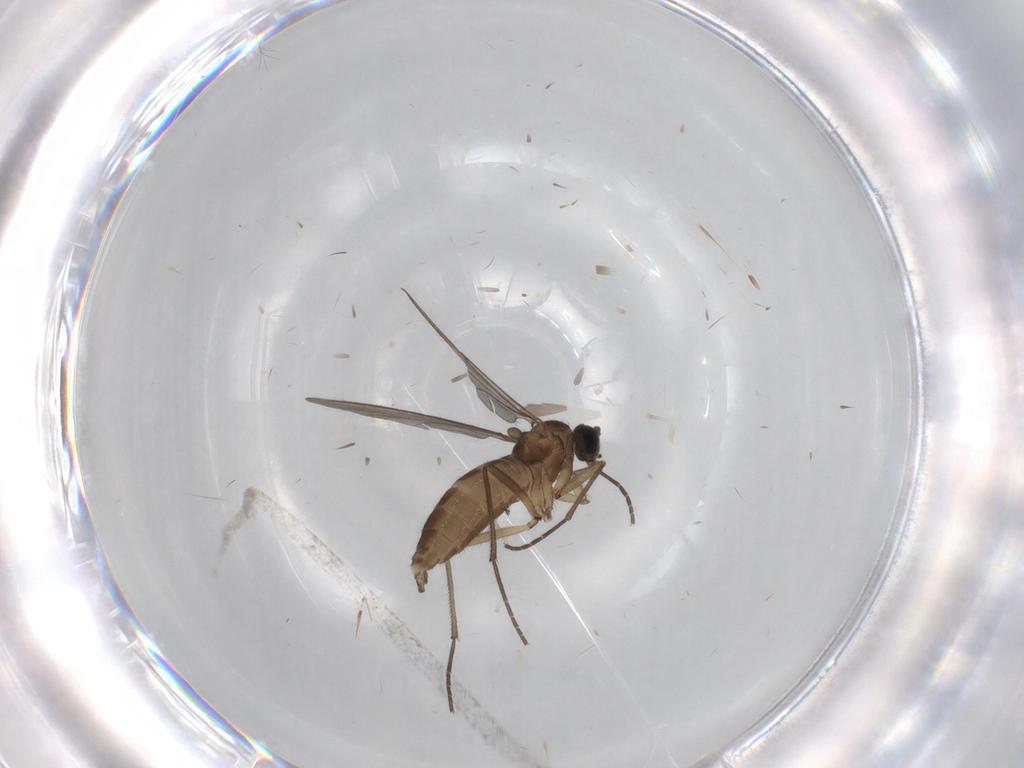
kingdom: Animalia
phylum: Arthropoda
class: Insecta
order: Diptera
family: Sciaridae
